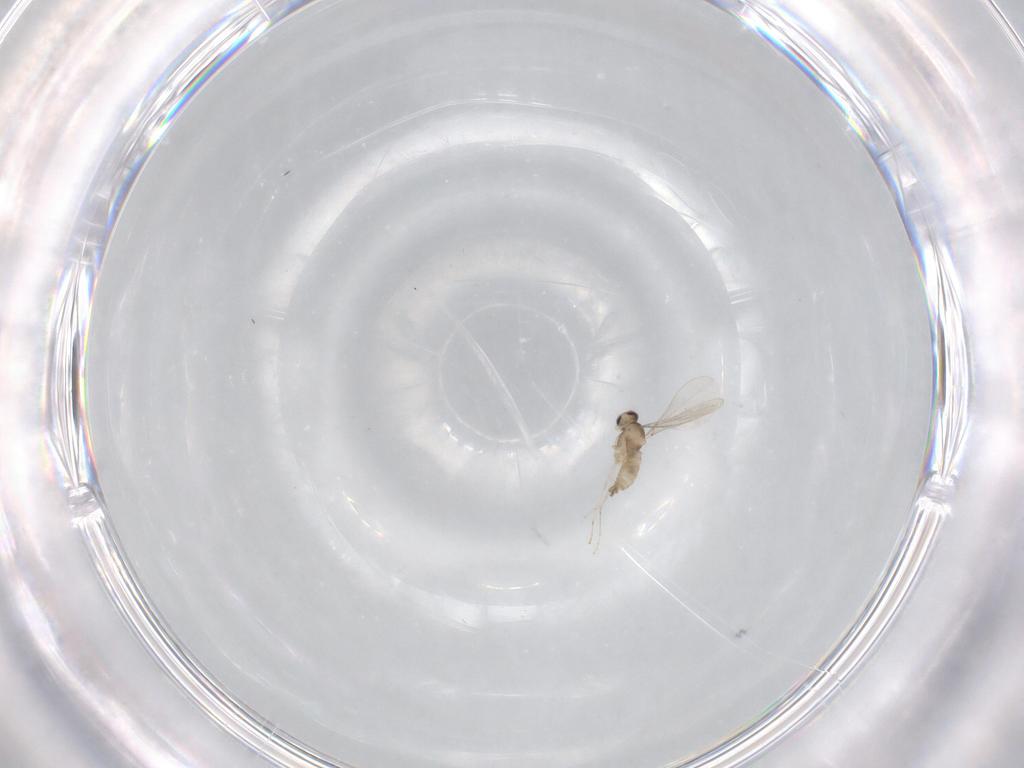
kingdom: Animalia
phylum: Arthropoda
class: Insecta
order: Diptera
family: Cecidomyiidae
